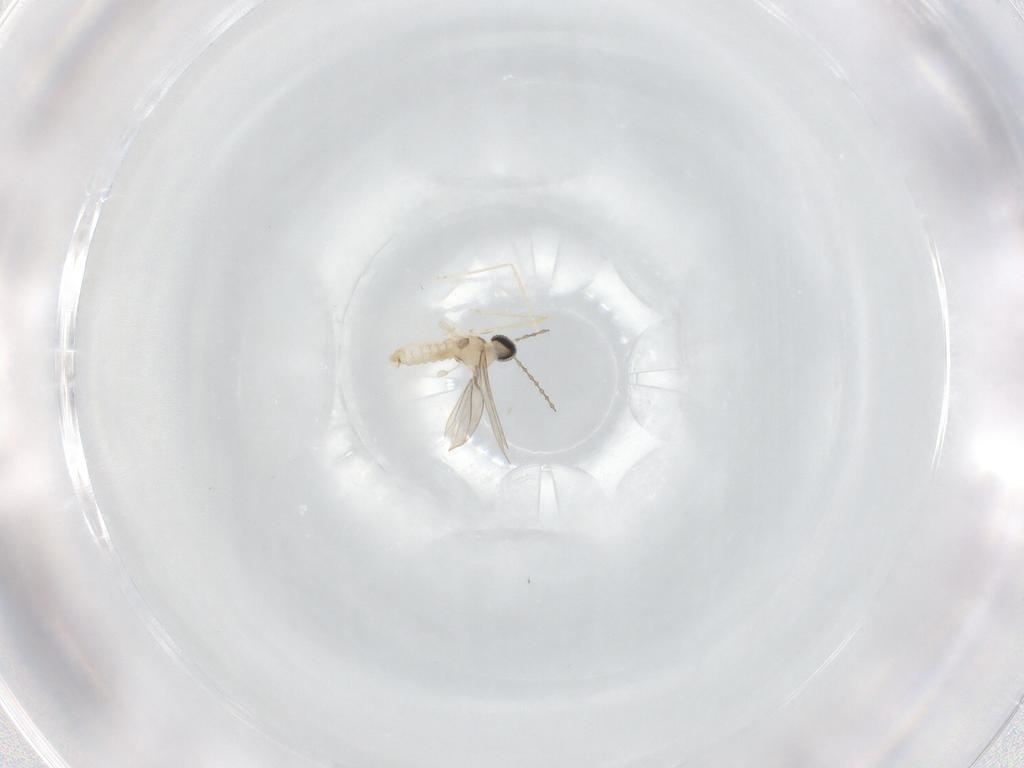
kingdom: Animalia
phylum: Arthropoda
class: Insecta
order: Diptera
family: Cecidomyiidae
